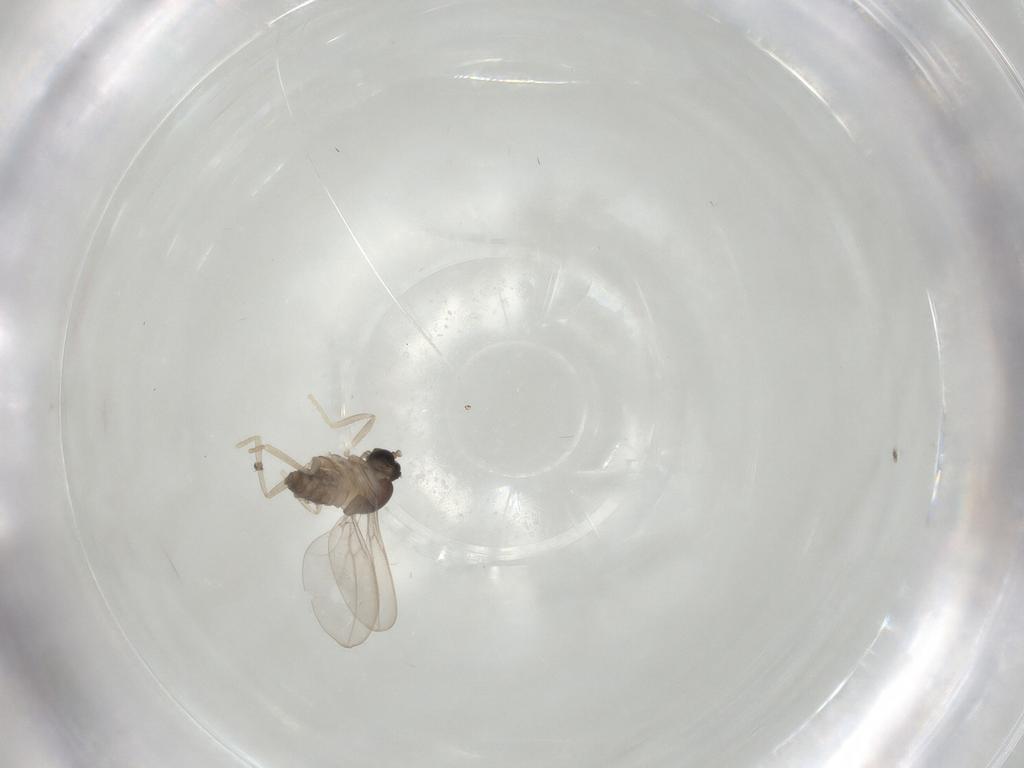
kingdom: Animalia
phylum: Arthropoda
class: Insecta
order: Diptera
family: Cecidomyiidae
